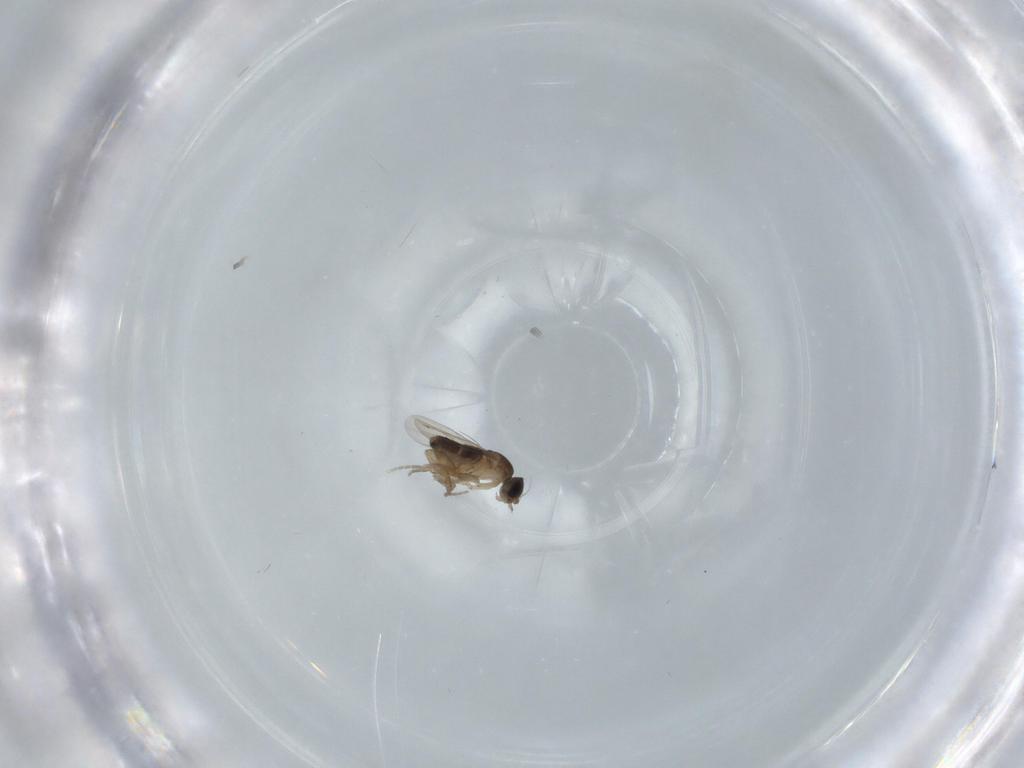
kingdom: Animalia
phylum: Arthropoda
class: Insecta
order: Diptera
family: Phoridae
